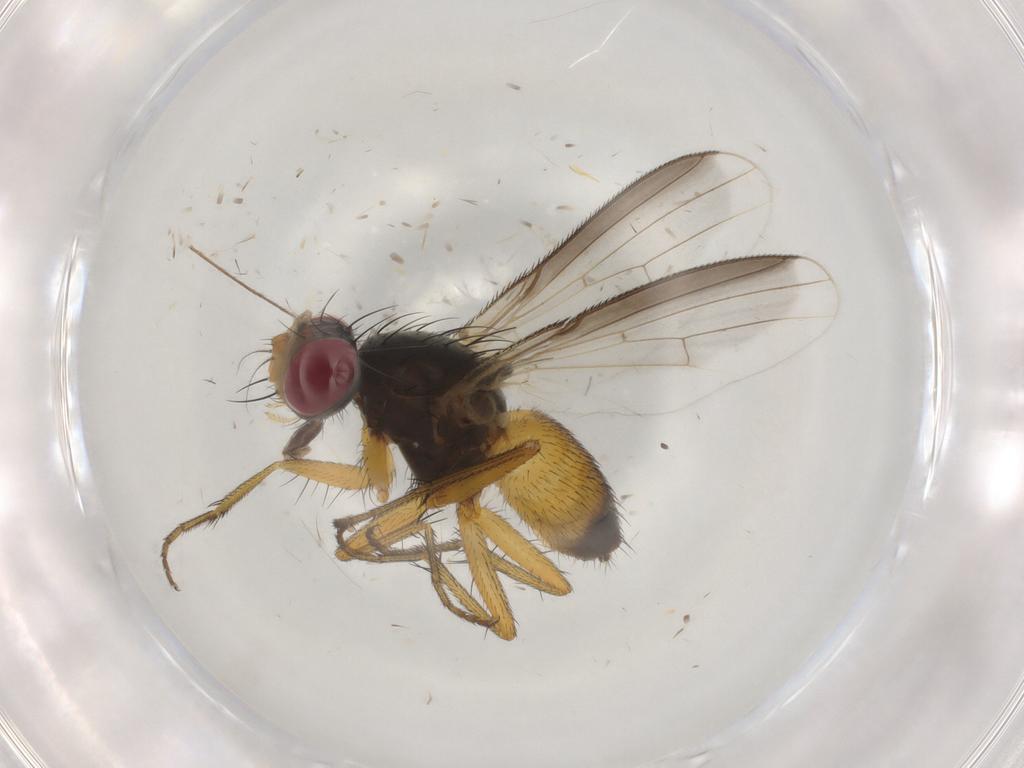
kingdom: Animalia
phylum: Arthropoda
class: Insecta
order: Diptera
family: Muscidae
